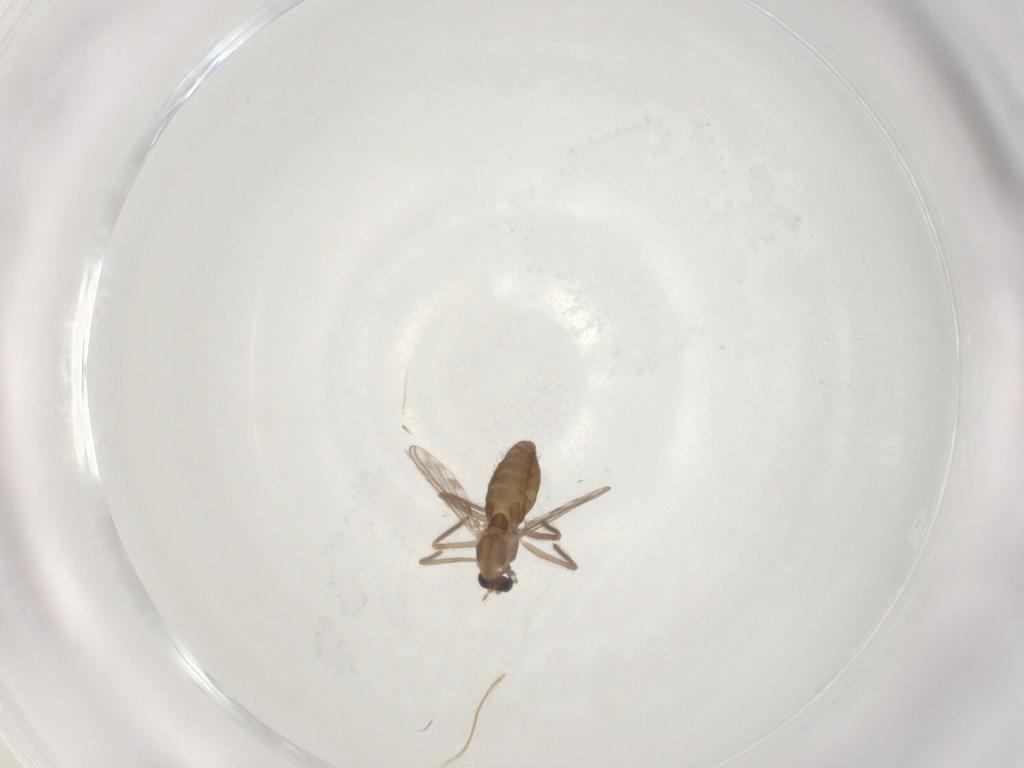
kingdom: Animalia
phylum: Arthropoda
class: Insecta
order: Diptera
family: Chironomidae
